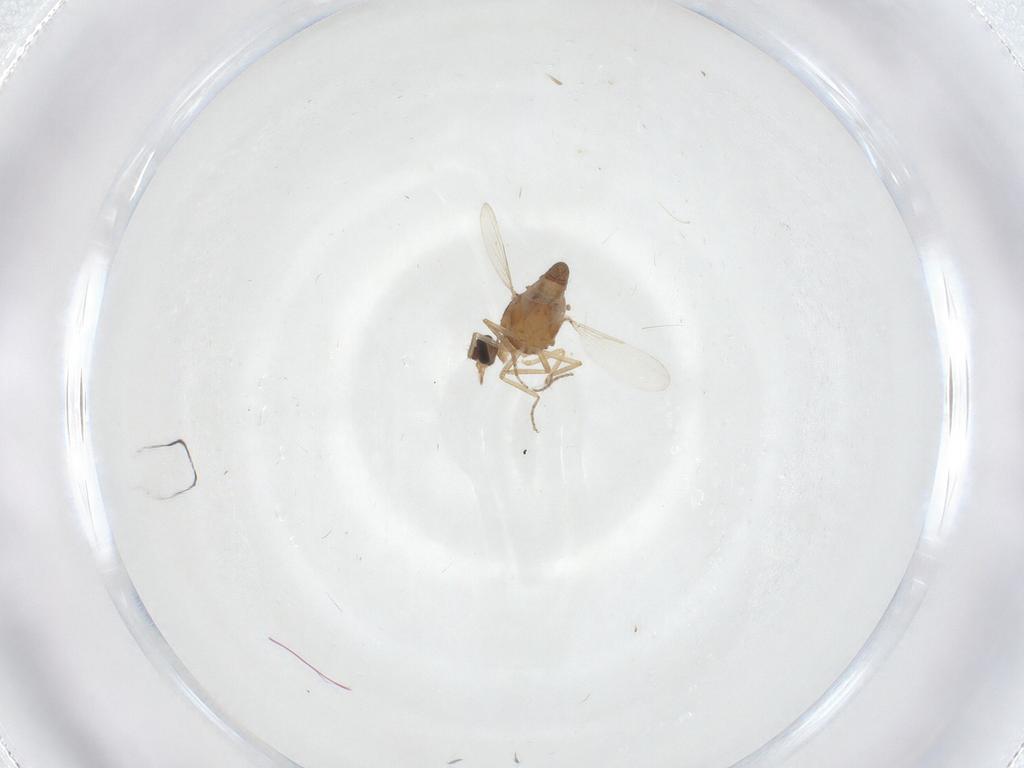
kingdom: Animalia
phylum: Arthropoda
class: Insecta
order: Diptera
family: Ceratopogonidae
